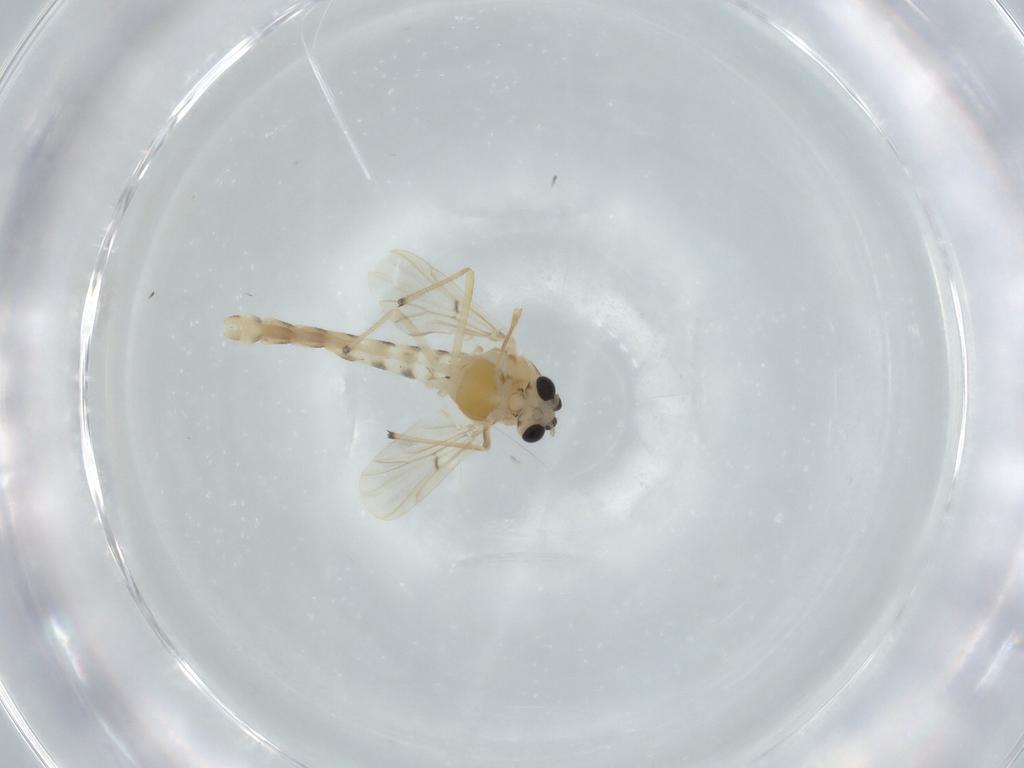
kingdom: Animalia
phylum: Arthropoda
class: Insecta
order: Diptera
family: Chironomidae
